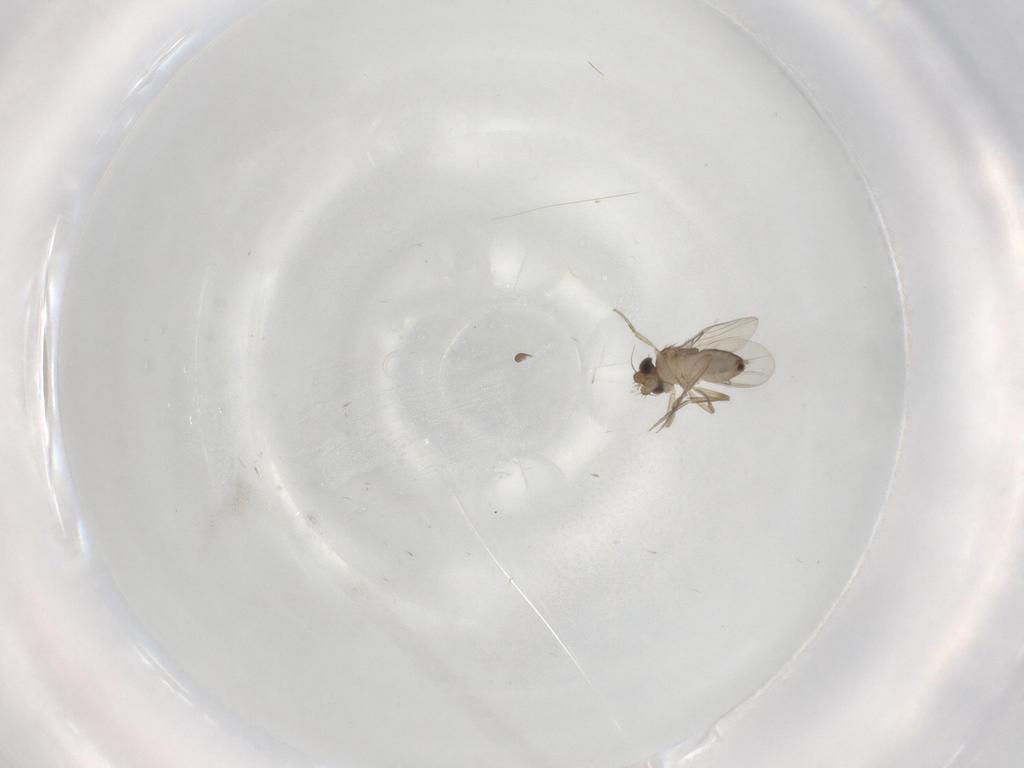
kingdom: Animalia
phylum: Arthropoda
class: Insecta
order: Diptera
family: Phoridae
